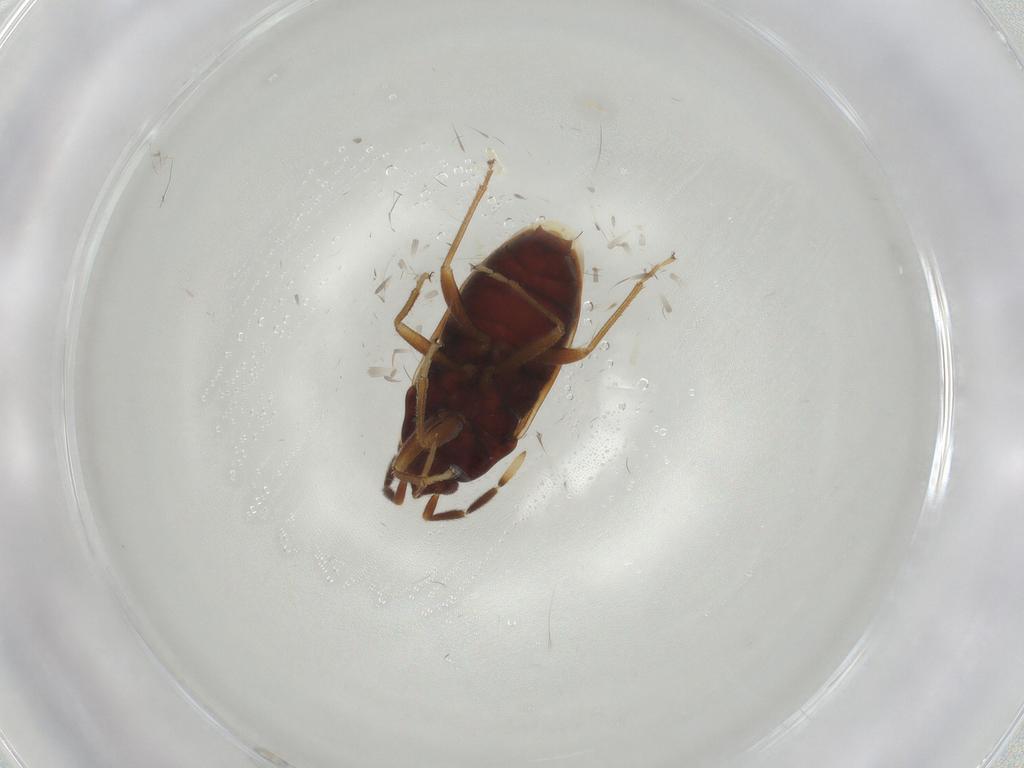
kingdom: Animalia
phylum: Arthropoda
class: Insecta
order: Hemiptera
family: Rhyparochromidae
